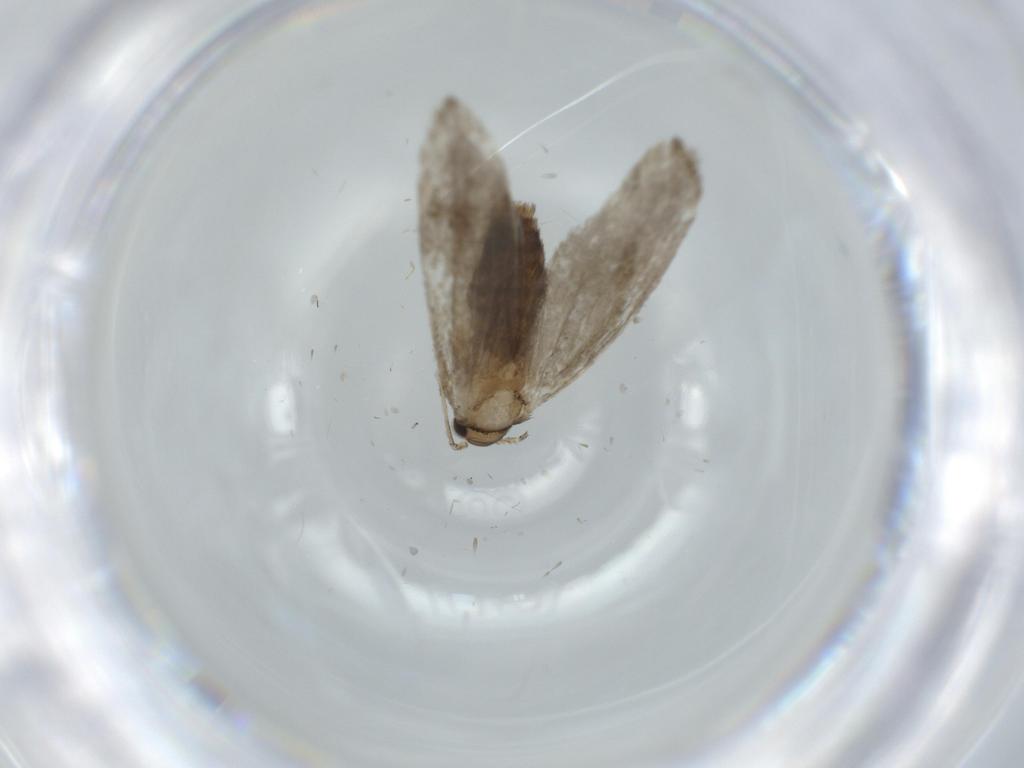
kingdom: Animalia
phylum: Arthropoda
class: Insecta
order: Lepidoptera
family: Tineidae
